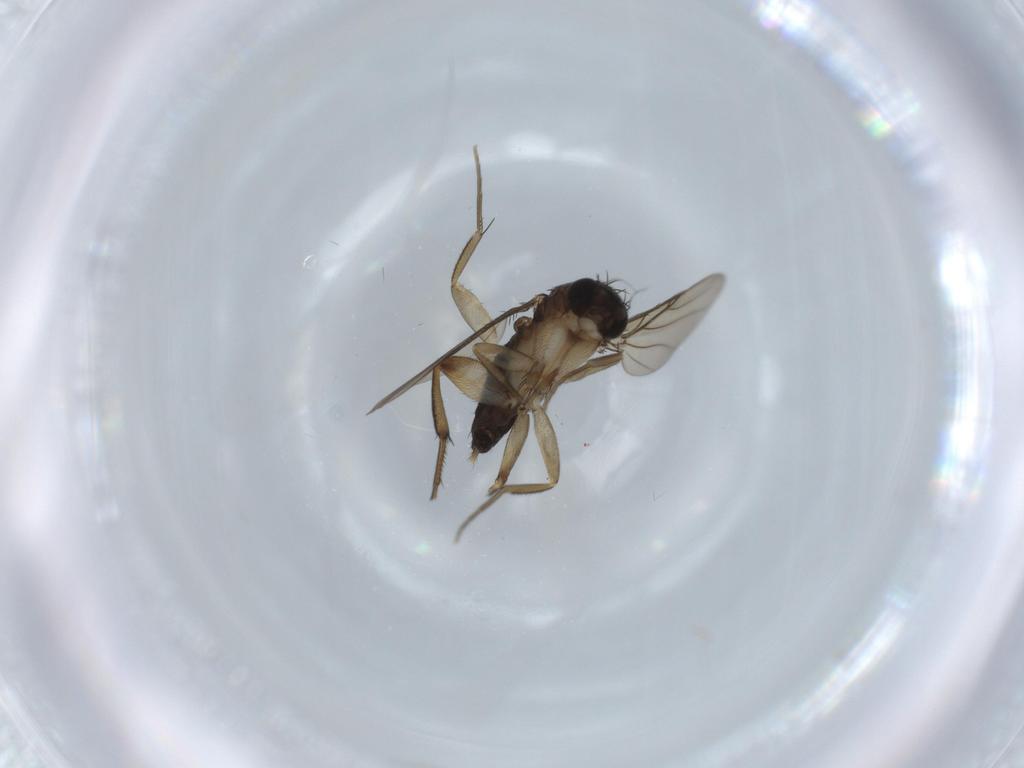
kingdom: Animalia
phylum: Arthropoda
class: Insecta
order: Diptera
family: Phoridae
